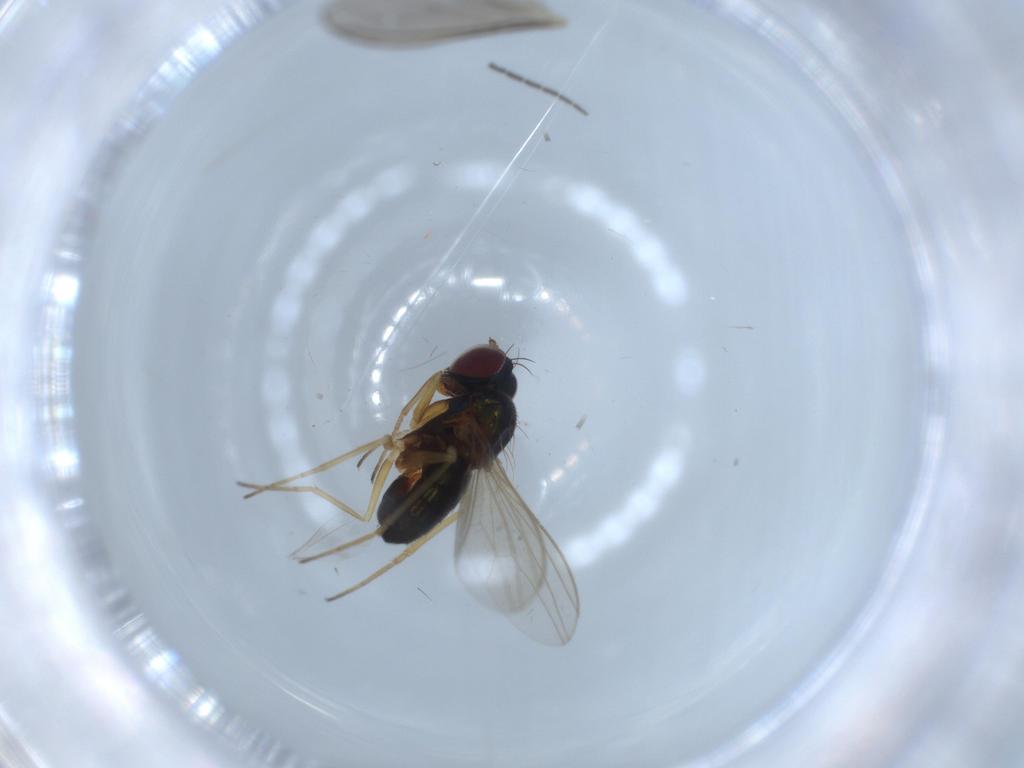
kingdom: Animalia
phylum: Arthropoda
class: Insecta
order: Diptera
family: Dolichopodidae
